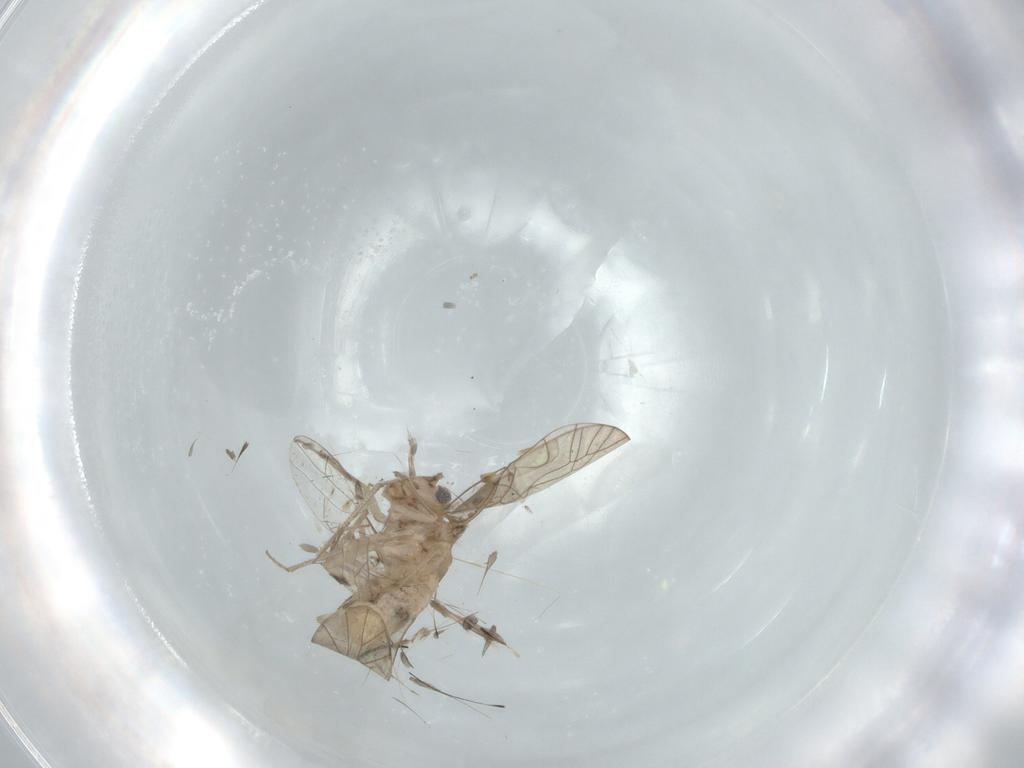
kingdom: Animalia
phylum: Arthropoda
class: Insecta
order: Psocodea
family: Lachesillidae
